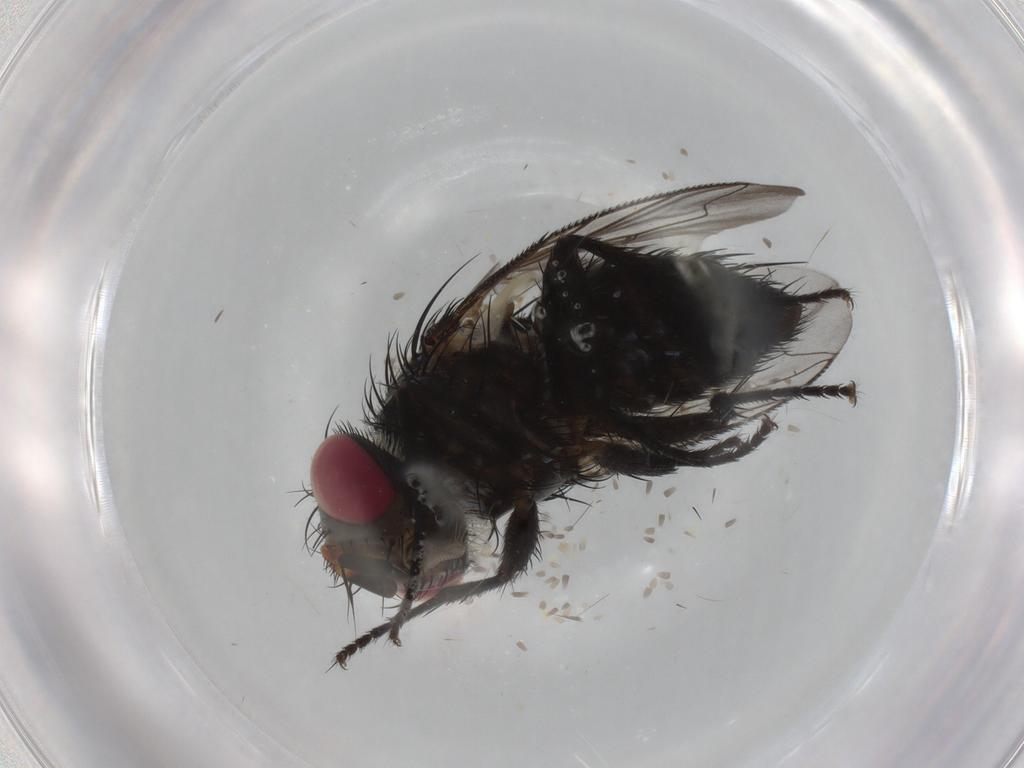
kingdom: Animalia
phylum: Arthropoda
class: Insecta
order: Diptera
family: Tachinidae
